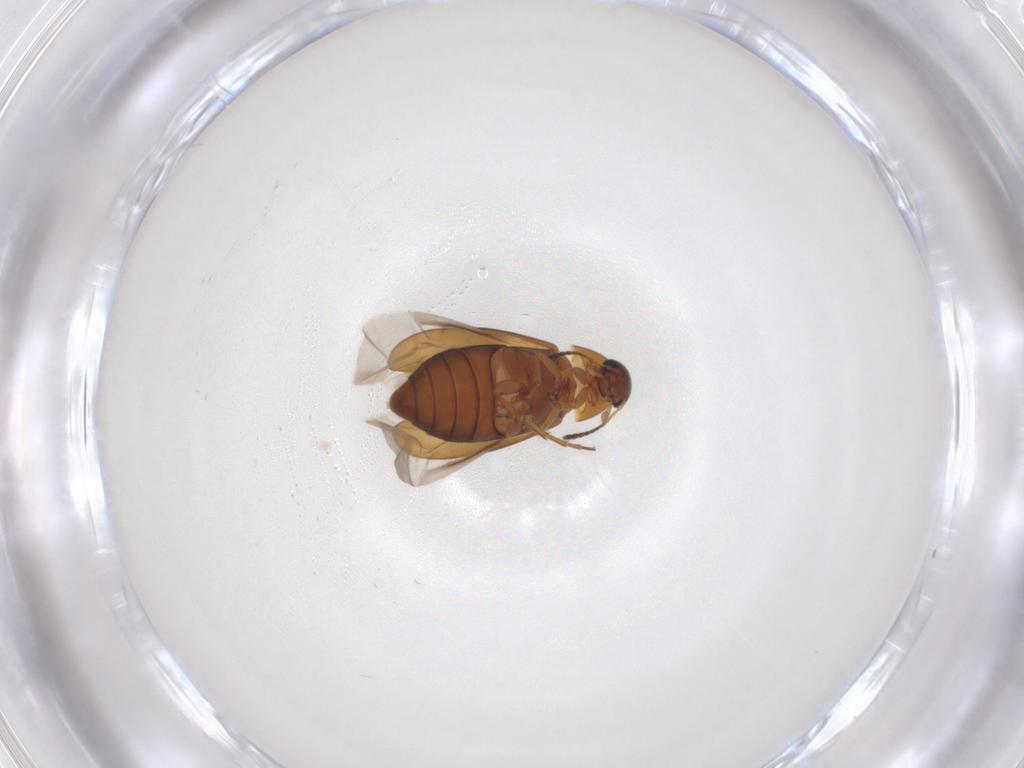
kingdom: Animalia
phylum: Arthropoda
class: Insecta
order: Coleoptera
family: Scraptiidae
